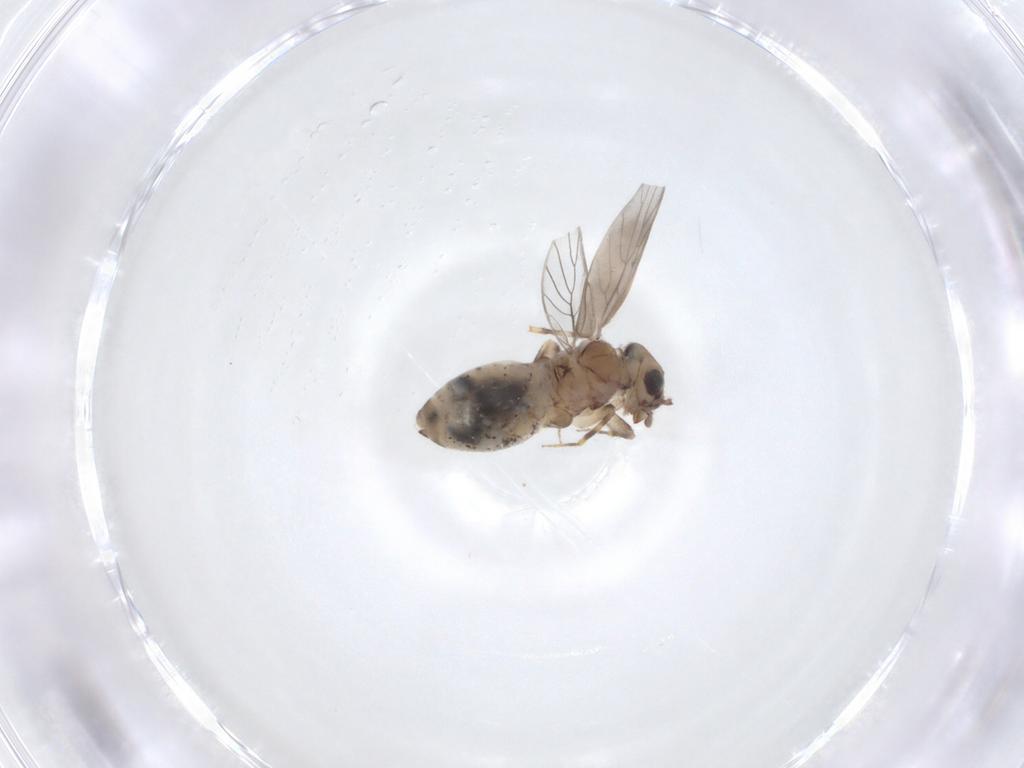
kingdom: Animalia
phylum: Arthropoda
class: Insecta
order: Psocodea
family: Lepidopsocidae
